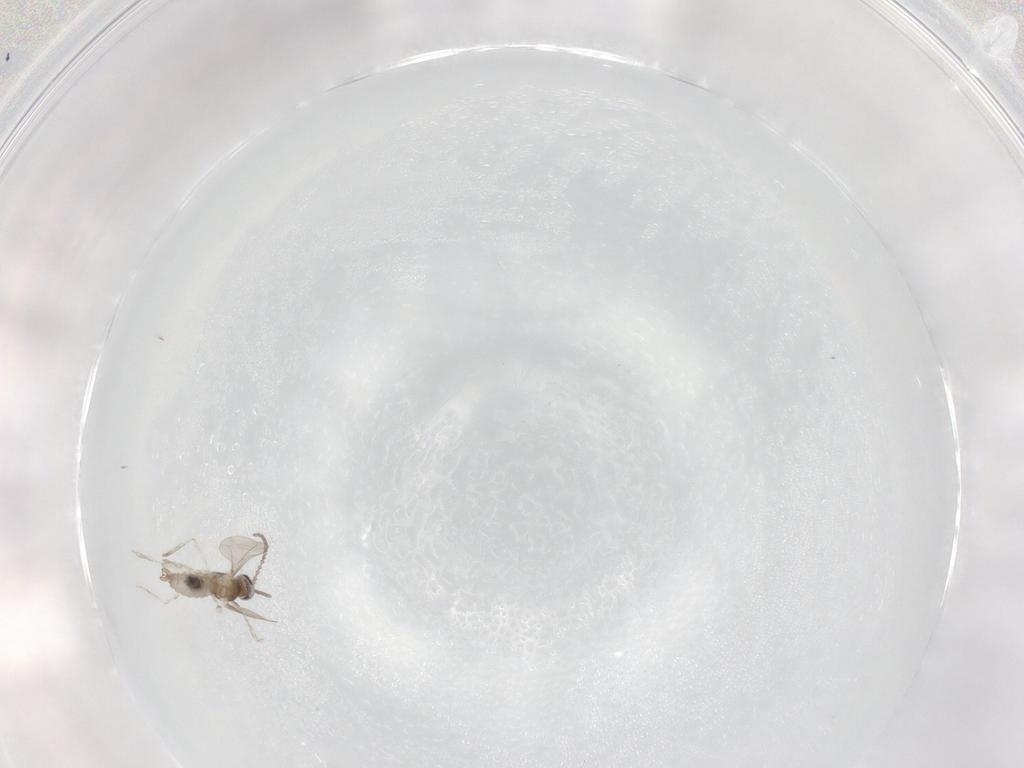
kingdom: Animalia
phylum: Arthropoda
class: Insecta
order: Diptera
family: Cecidomyiidae
